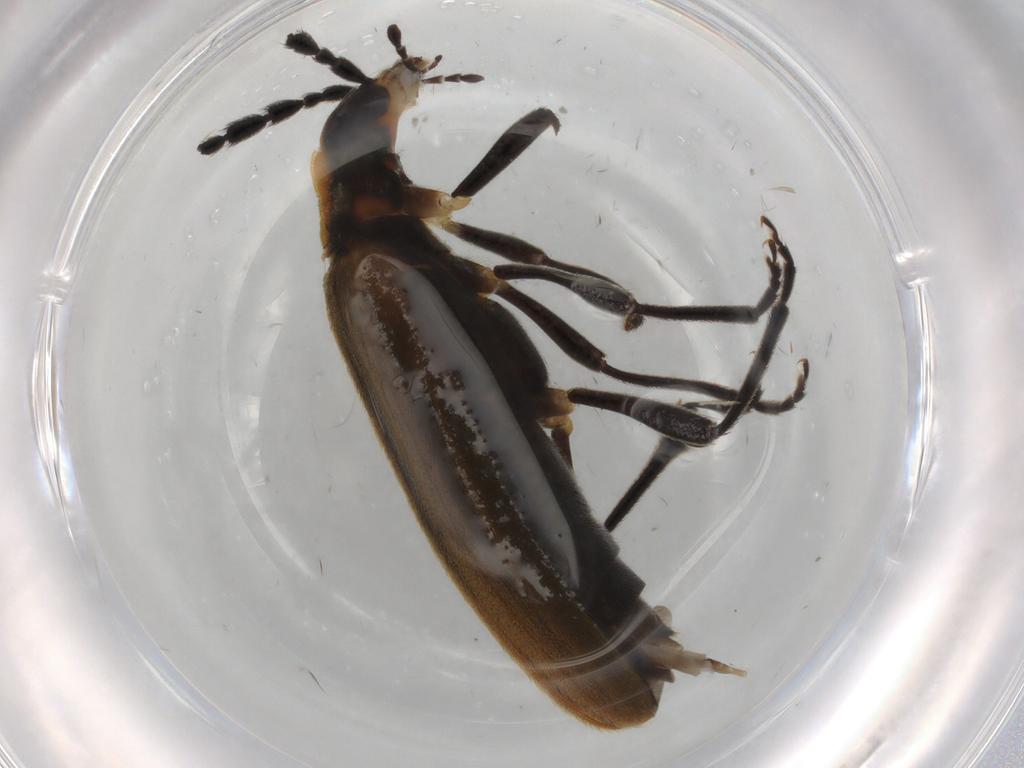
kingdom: Animalia
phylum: Arthropoda
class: Insecta
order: Coleoptera
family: Oedemeridae
